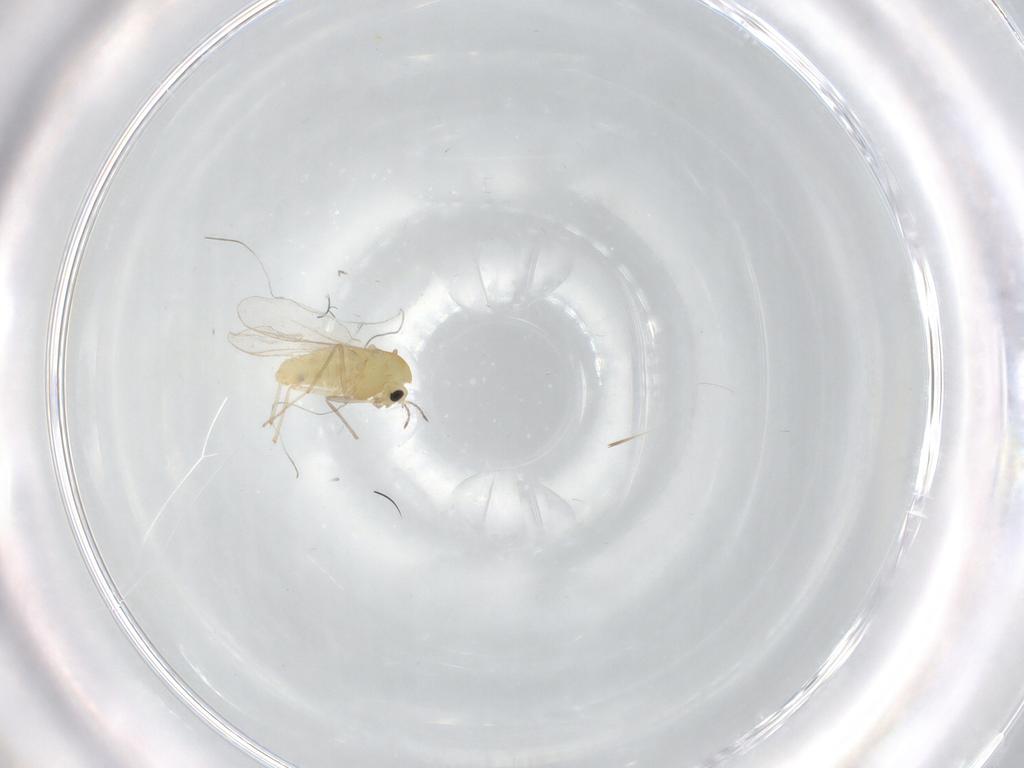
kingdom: Animalia
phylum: Arthropoda
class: Insecta
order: Diptera
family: Chironomidae
